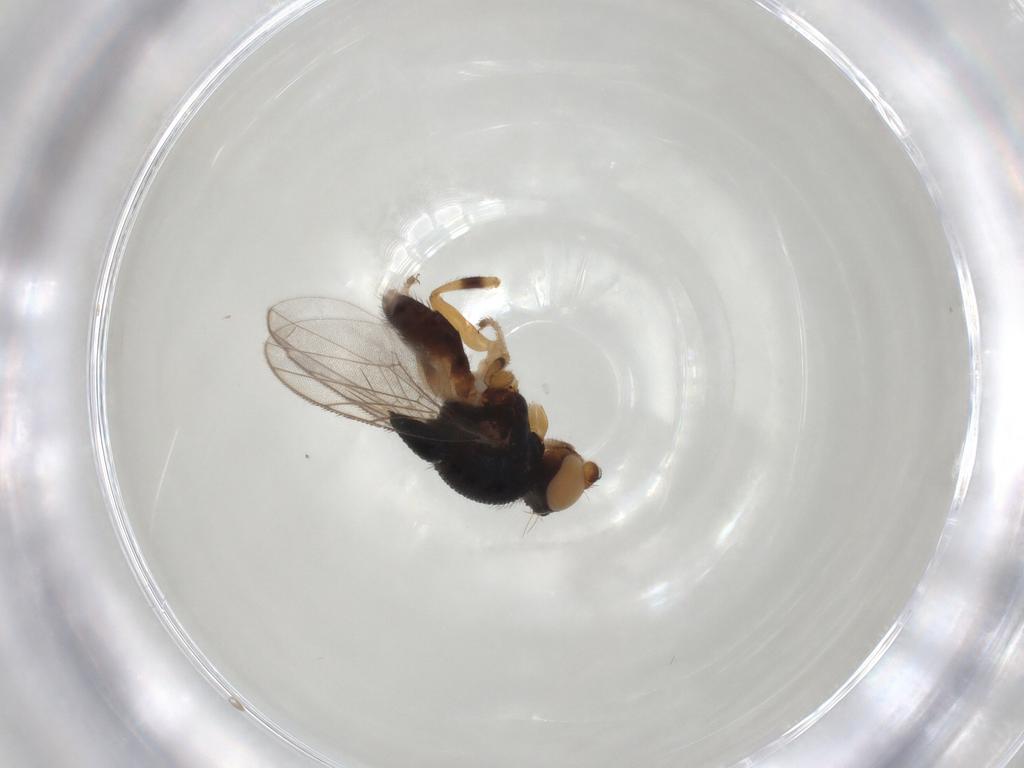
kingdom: Animalia
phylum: Arthropoda
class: Insecta
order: Diptera
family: Chloropidae
